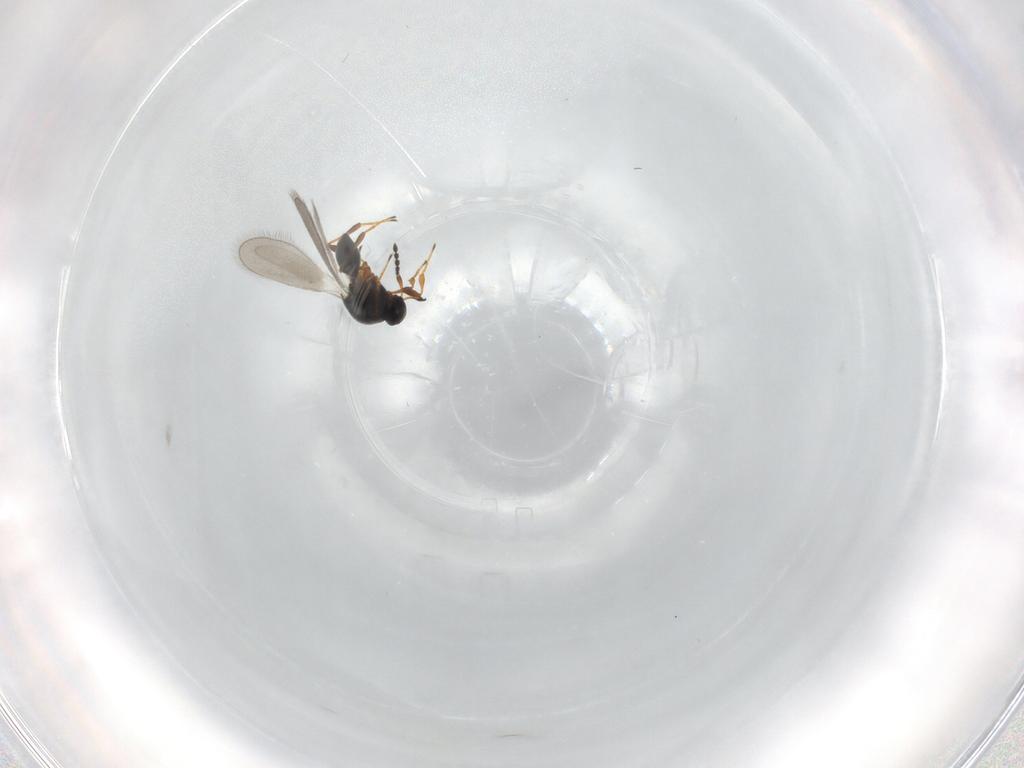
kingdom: Animalia
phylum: Arthropoda
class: Insecta
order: Hymenoptera
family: Platygastridae
